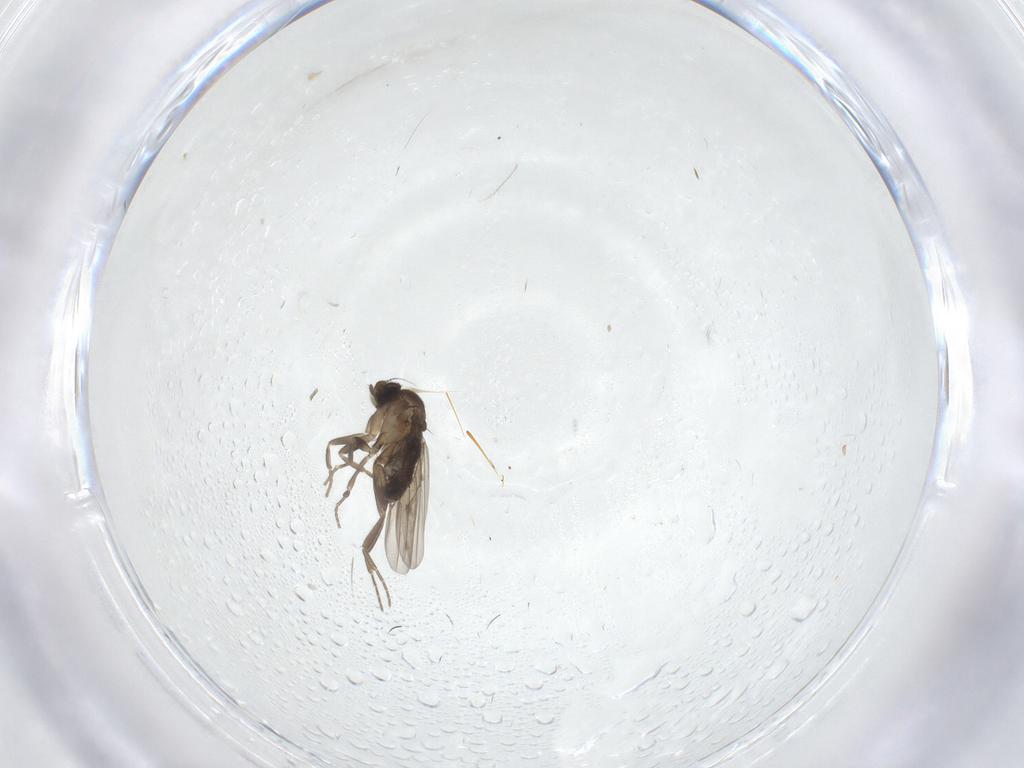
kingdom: Animalia
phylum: Arthropoda
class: Insecta
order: Diptera
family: Phoridae
